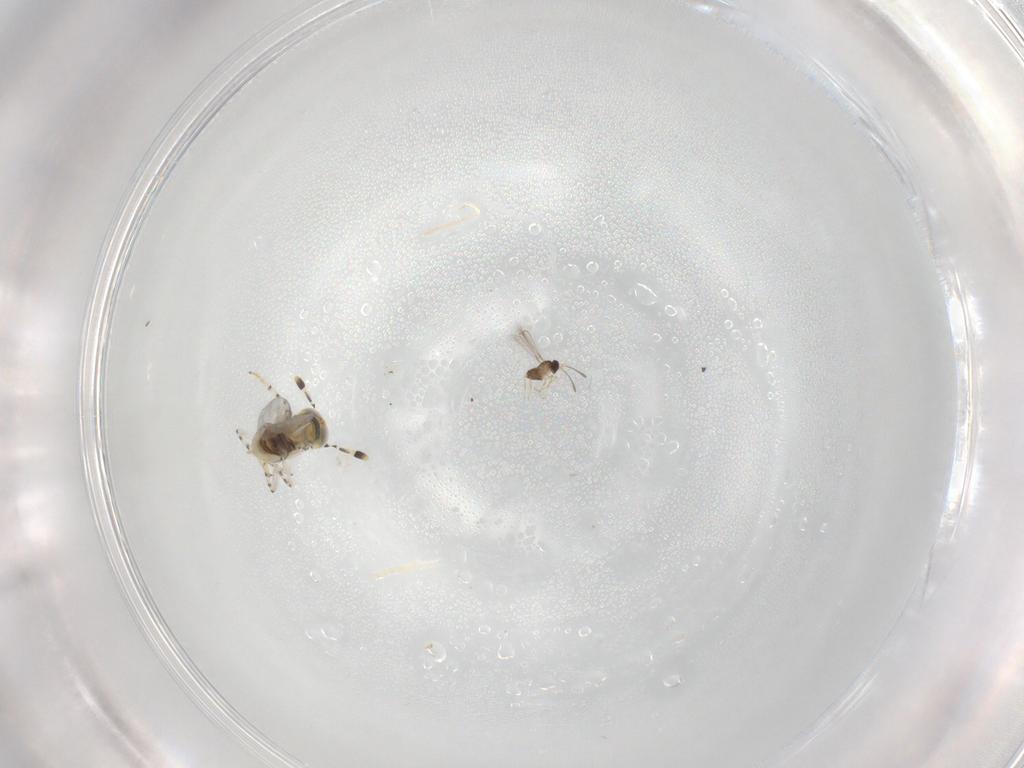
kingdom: Animalia
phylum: Arthropoda
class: Insecta
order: Hymenoptera
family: Encyrtidae
